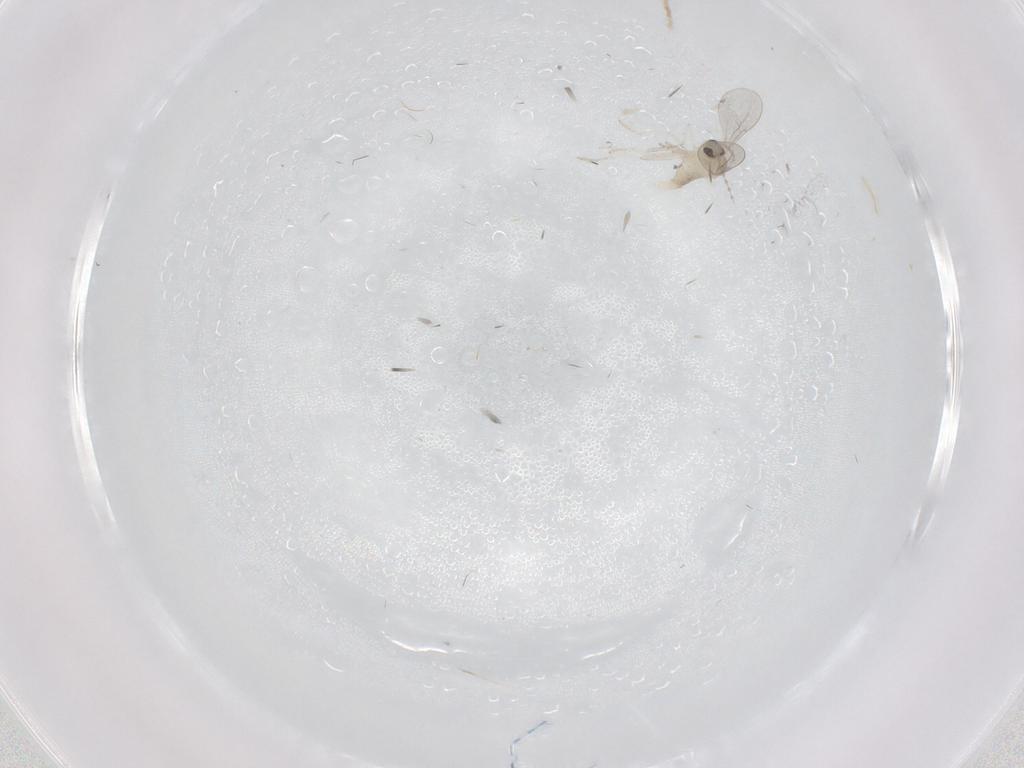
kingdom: Animalia
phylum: Arthropoda
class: Insecta
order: Diptera
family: Cecidomyiidae
